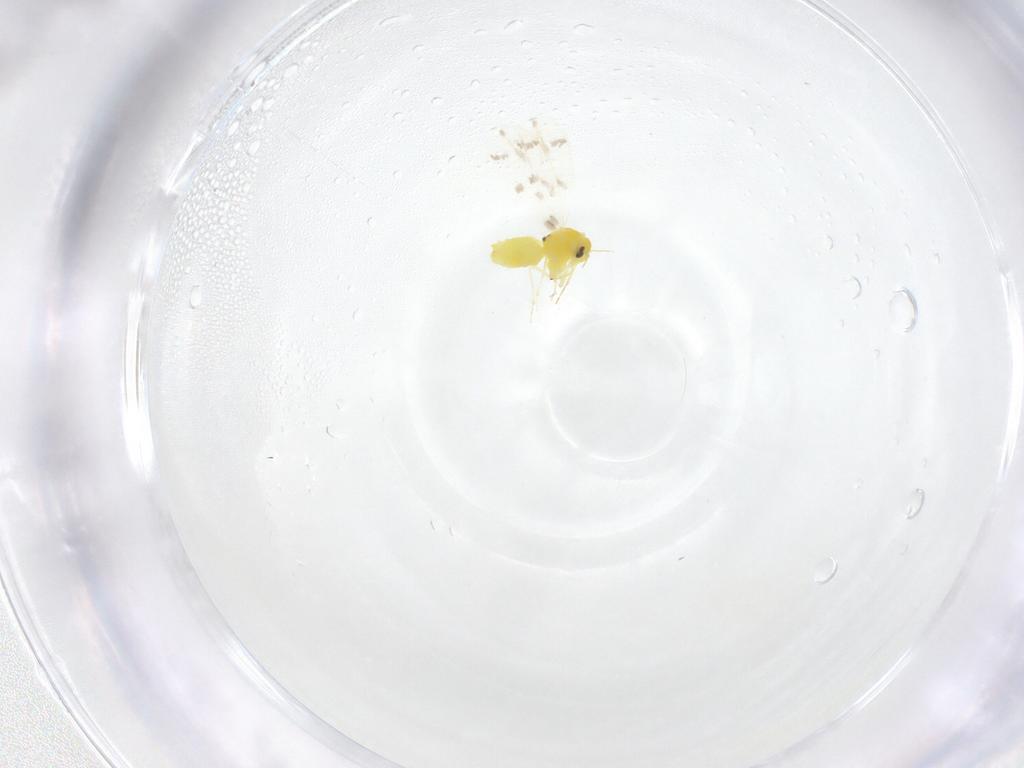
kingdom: Animalia
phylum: Arthropoda
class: Insecta
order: Hemiptera
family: Aleyrodidae
